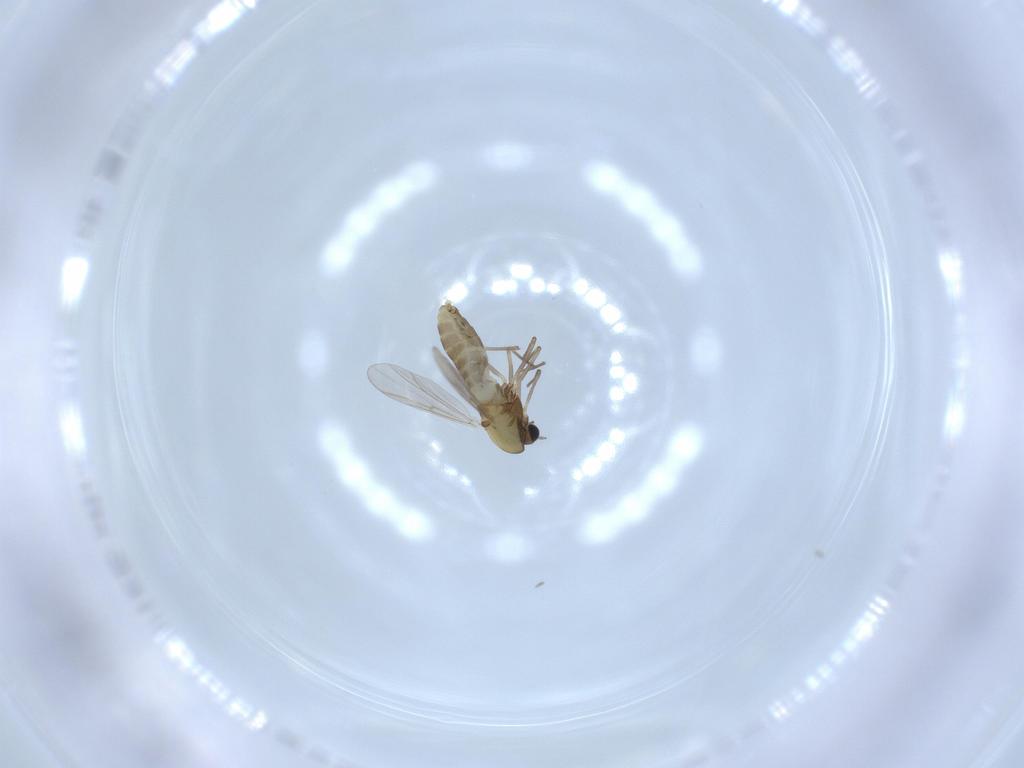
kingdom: Animalia
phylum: Arthropoda
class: Insecta
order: Diptera
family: Chironomidae
